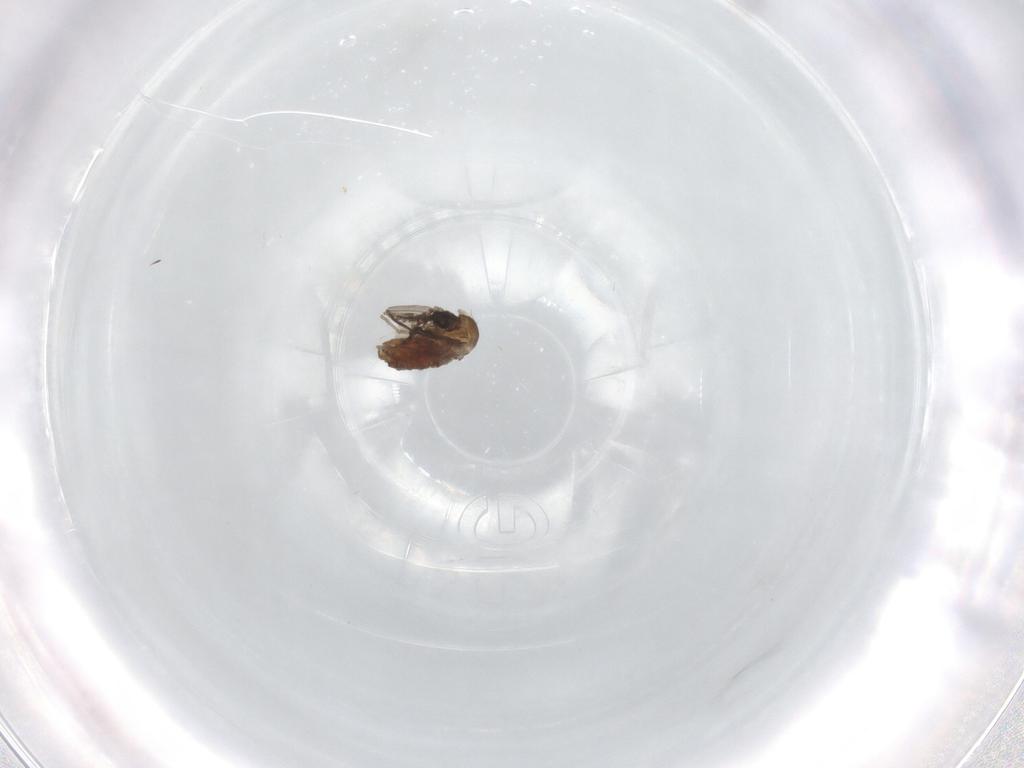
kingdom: Animalia
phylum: Arthropoda
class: Insecta
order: Diptera
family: Psychodidae
